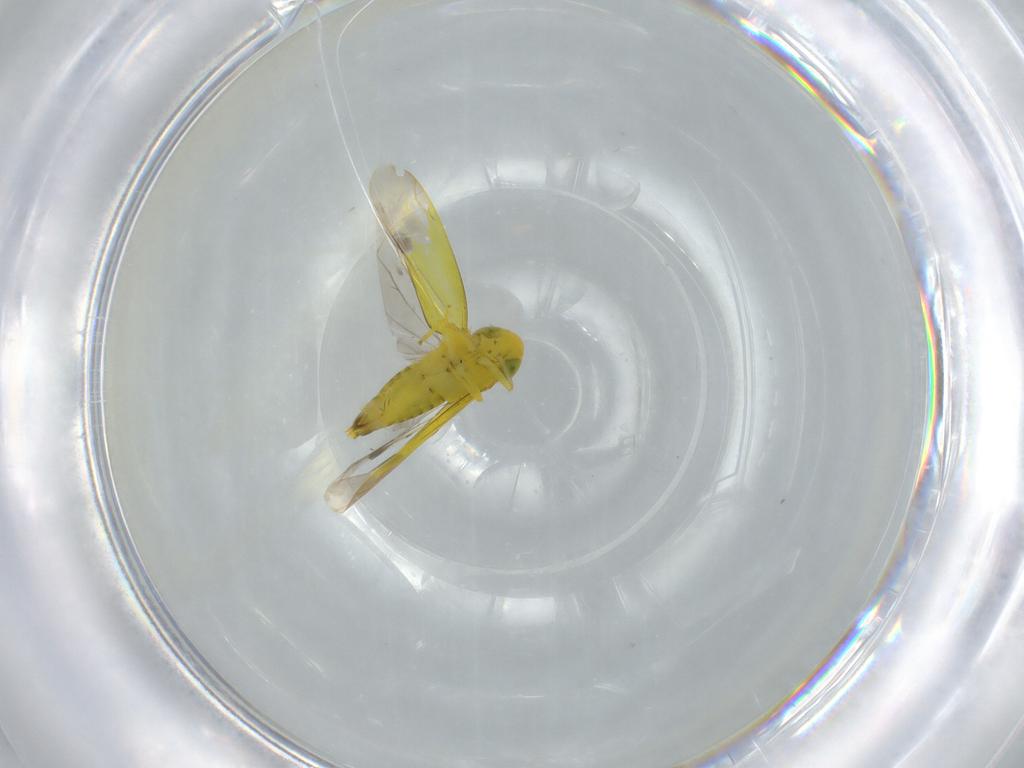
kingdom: Animalia
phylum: Arthropoda
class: Insecta
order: Hemiptera
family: Cicadellidae
